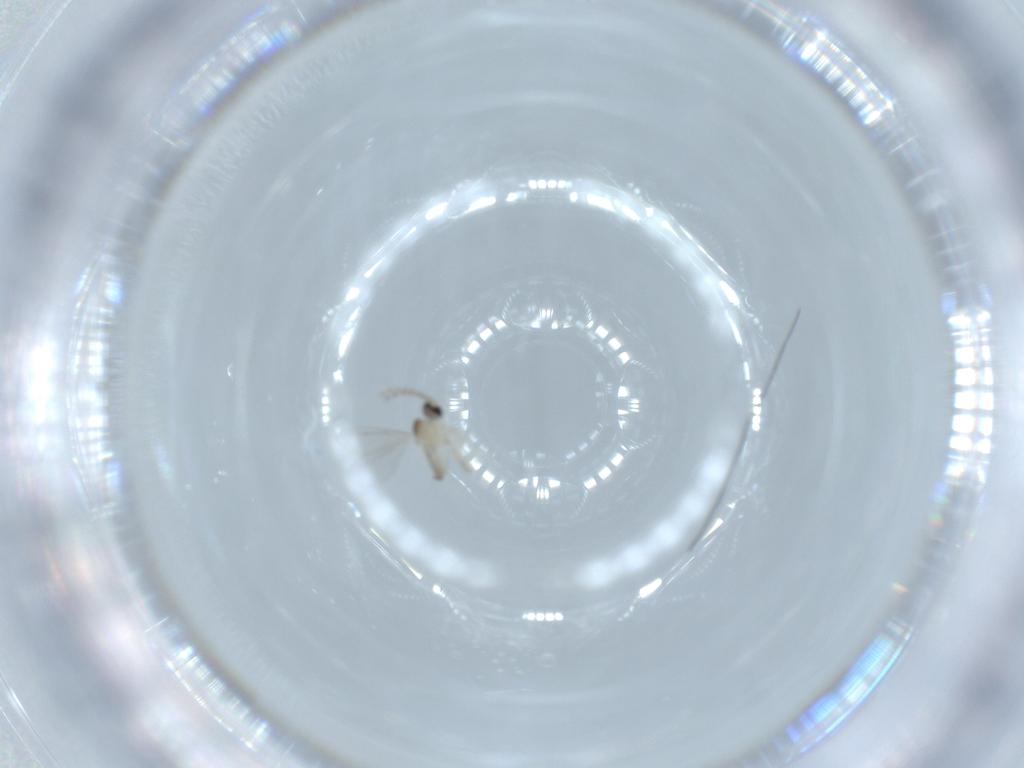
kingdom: Animalia
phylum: Arthropoda
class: Insecta
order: Diptera
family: Cecidomyiidae
